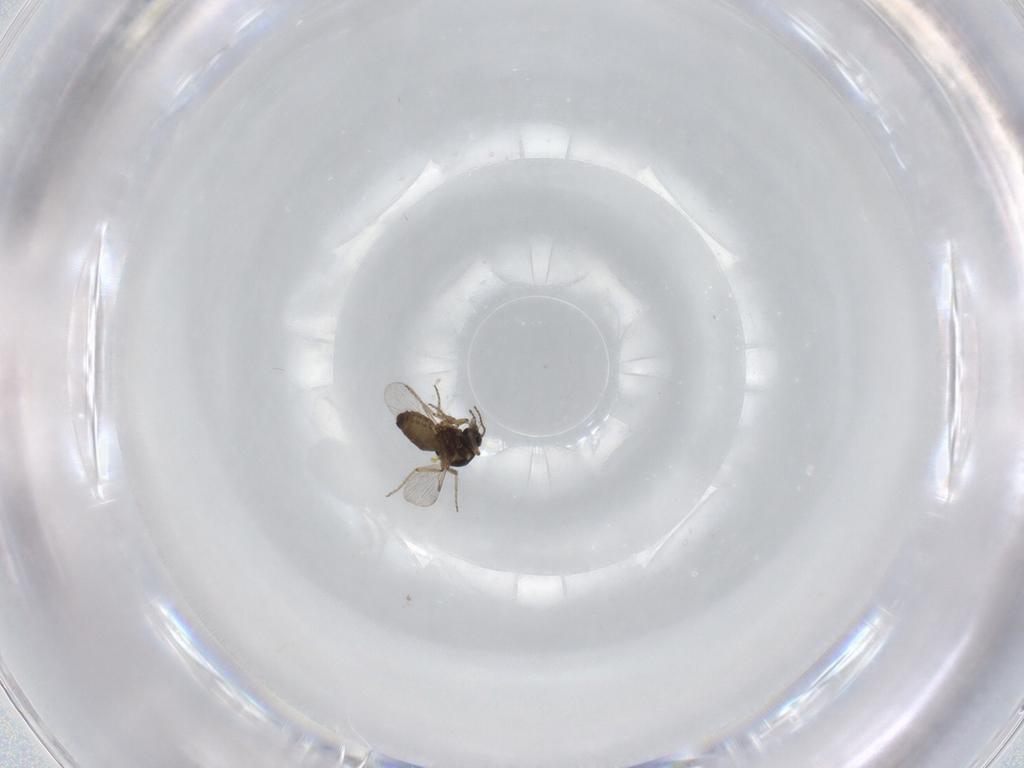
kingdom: Animalia
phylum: Arthropoda
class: Insecta
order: Diptera
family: Ceratopogonidae
